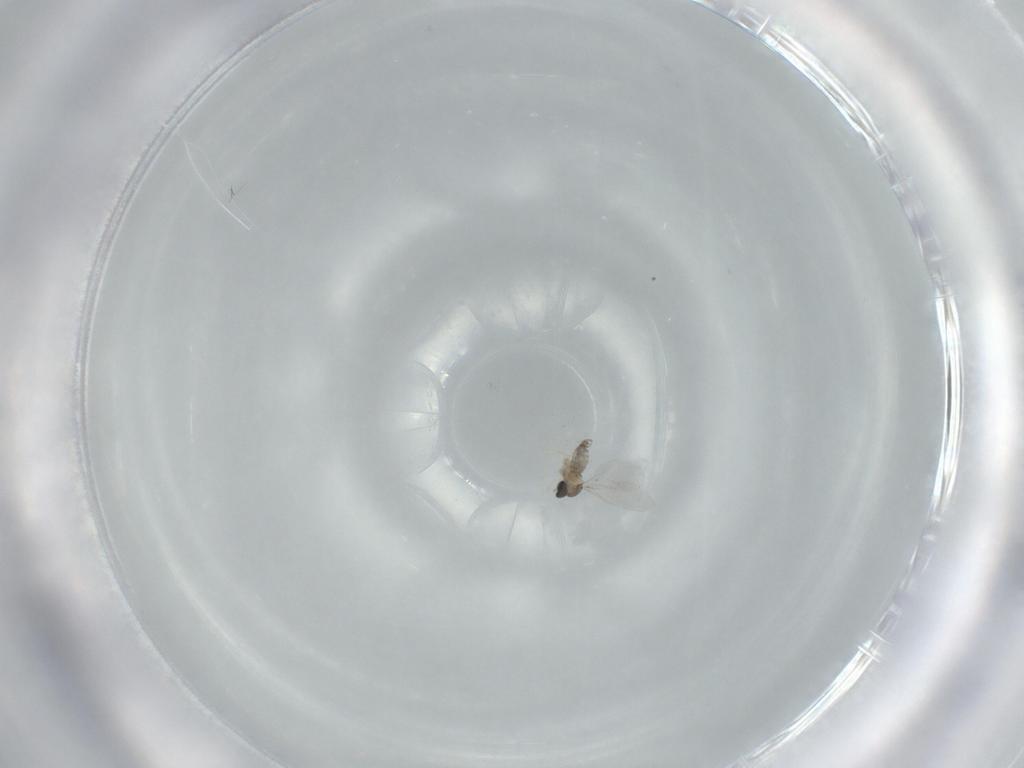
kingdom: Animalia
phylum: Arthropoda
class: Insecta
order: Diptera
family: Cecidomyiidae
